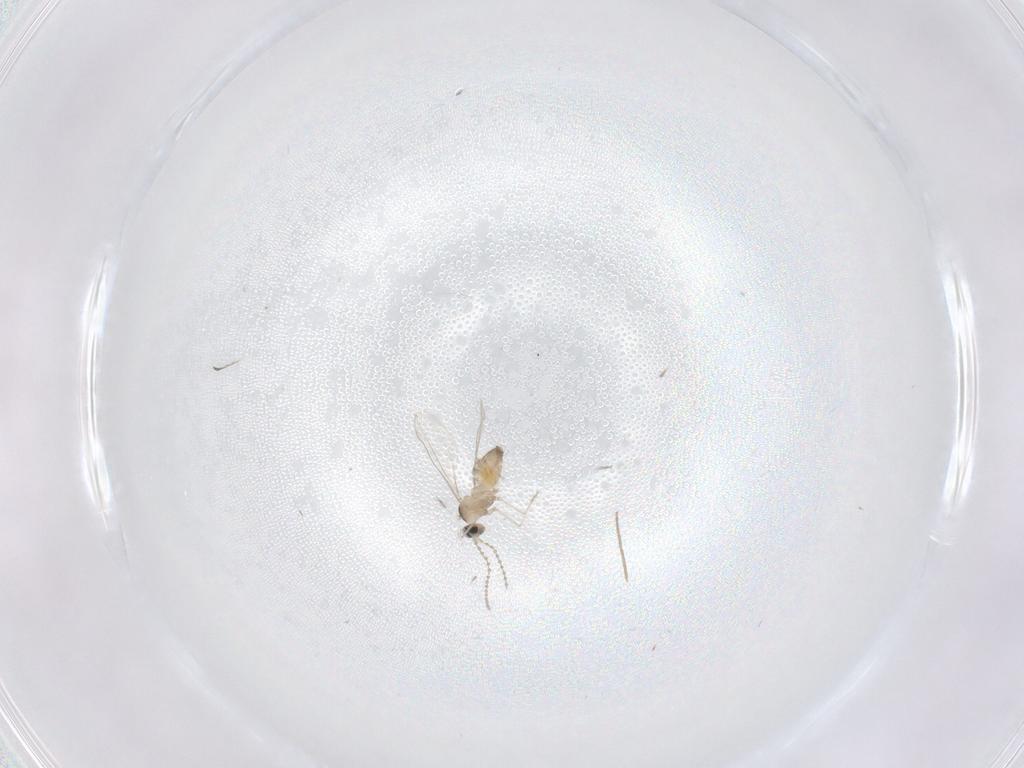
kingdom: Animalia
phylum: Arthropoda
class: Insecta
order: Diptera
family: Cecidomyiidae
